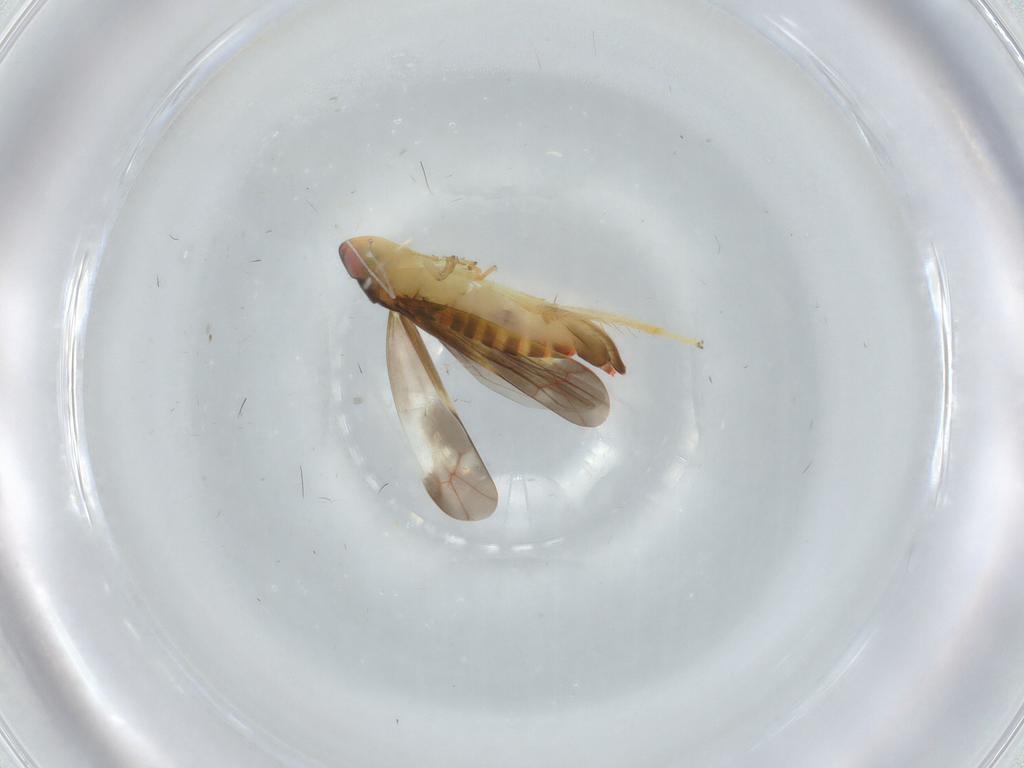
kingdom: Animalia
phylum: Arthropoda
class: Insecta
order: Hemiptera
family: Cicadellidae
